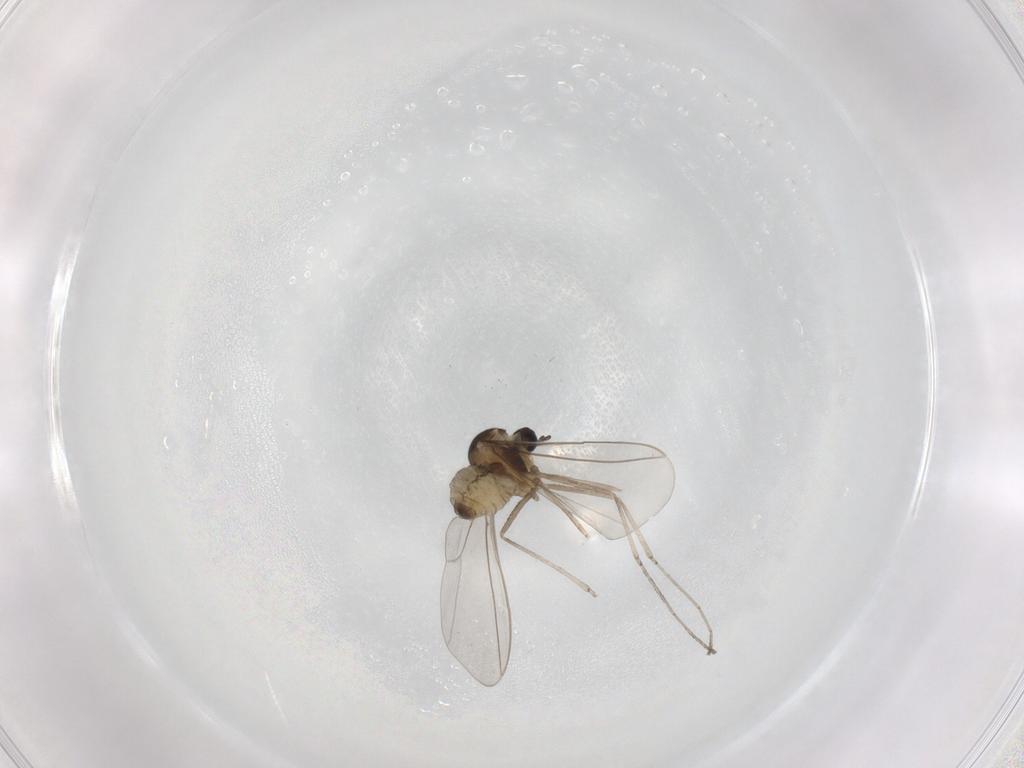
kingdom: Animalia
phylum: Arthropoda
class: Insecta
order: Diptera
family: Cecidomyiidae
